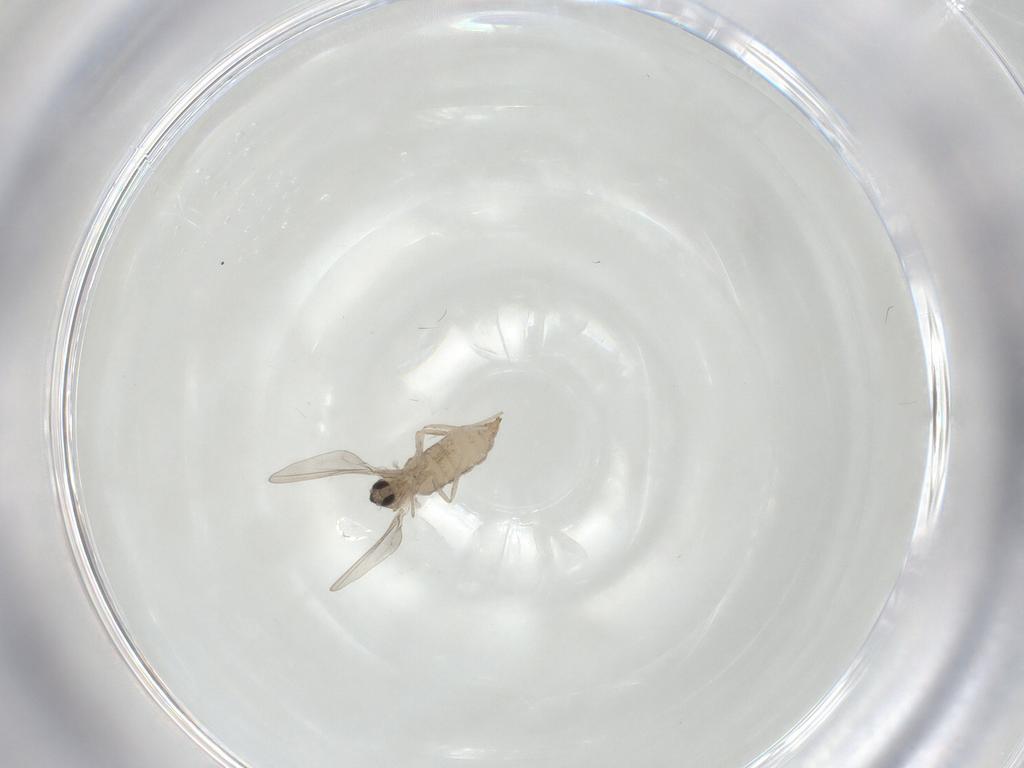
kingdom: Animalia
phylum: Arthropoda
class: Insecta
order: Diptera
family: Cecidomyiidae
